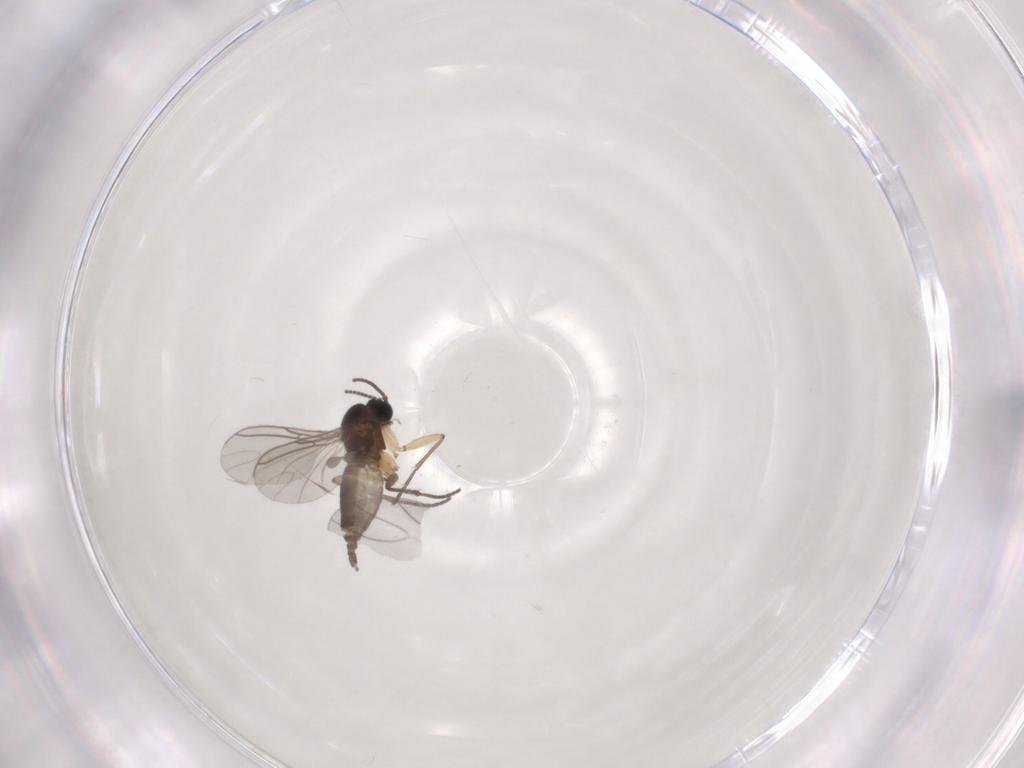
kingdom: Animalia
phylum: Arthropoda
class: Insecta
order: Diptera
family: Sciaridae
